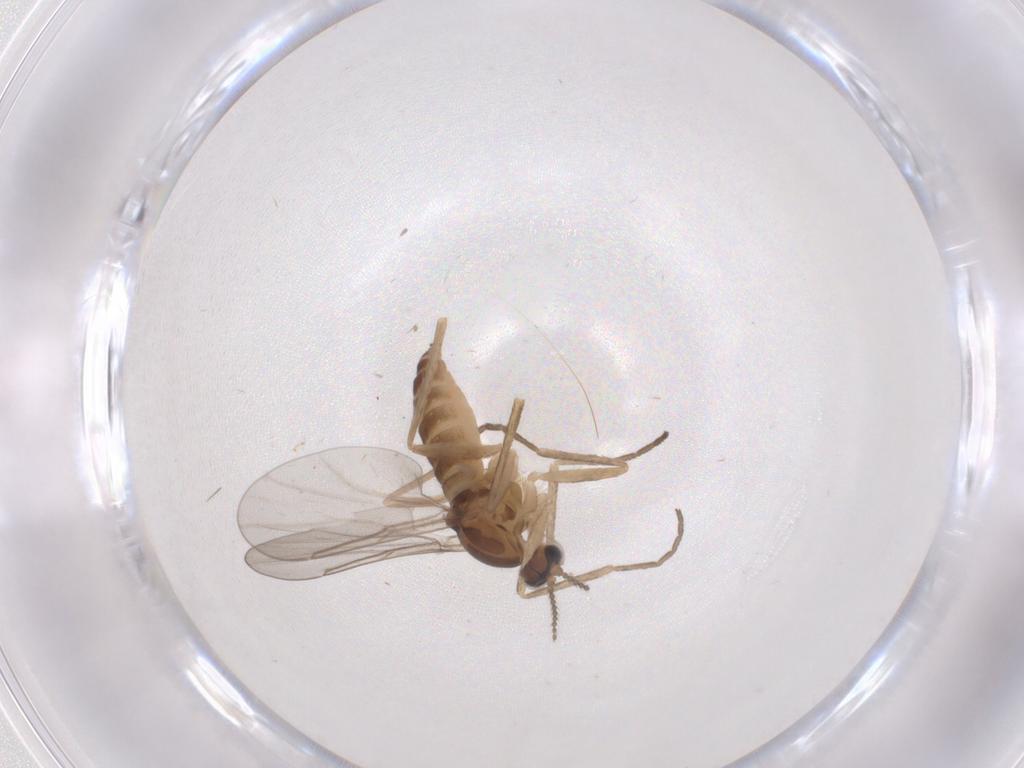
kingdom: Animalia
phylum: Arthropoda
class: Insecta
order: Diptera
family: Cecidomyiidae
